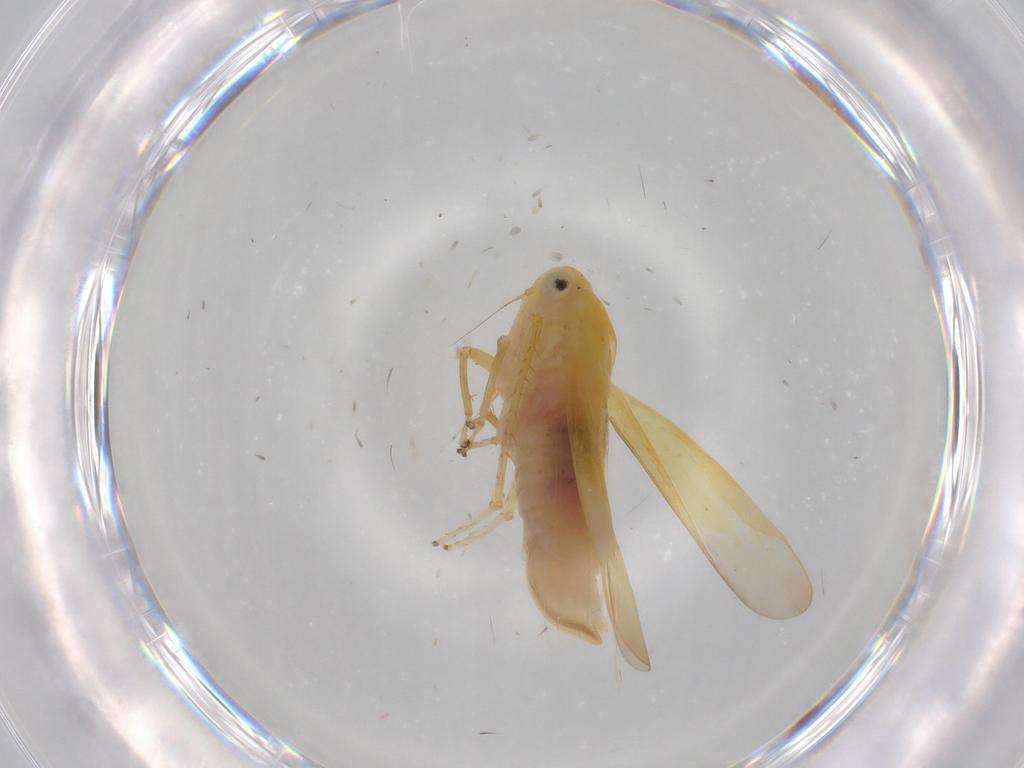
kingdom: Animalia
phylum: Arthropoda
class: Insecta
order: Hemiptera
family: Cicadellidae
